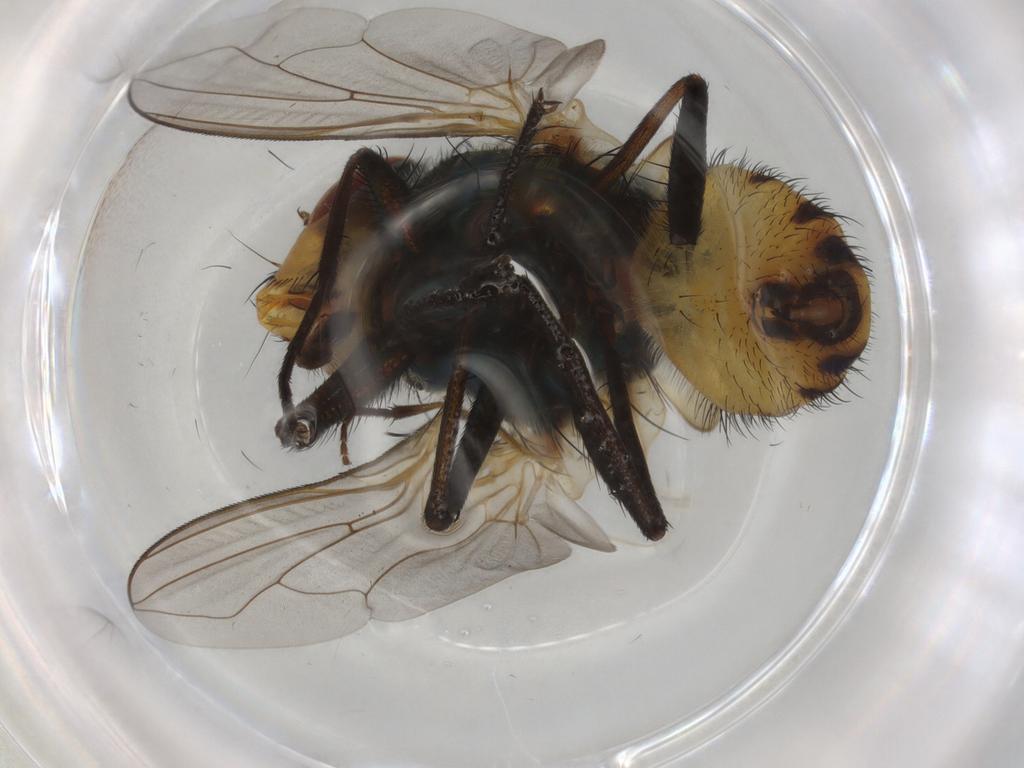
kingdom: Animalia
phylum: Arthropoda
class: Insecta
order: Diptera
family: Calliphoridae
